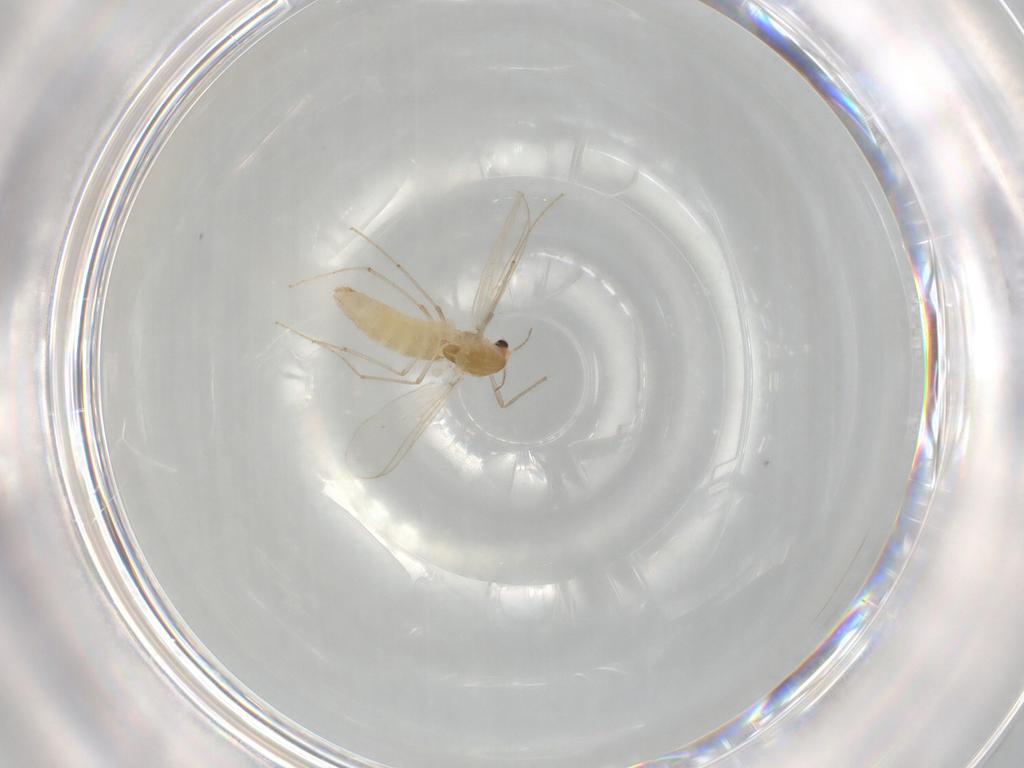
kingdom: Animalia
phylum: Arthropoda
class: Insecta
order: Diptera
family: Chironomidae
